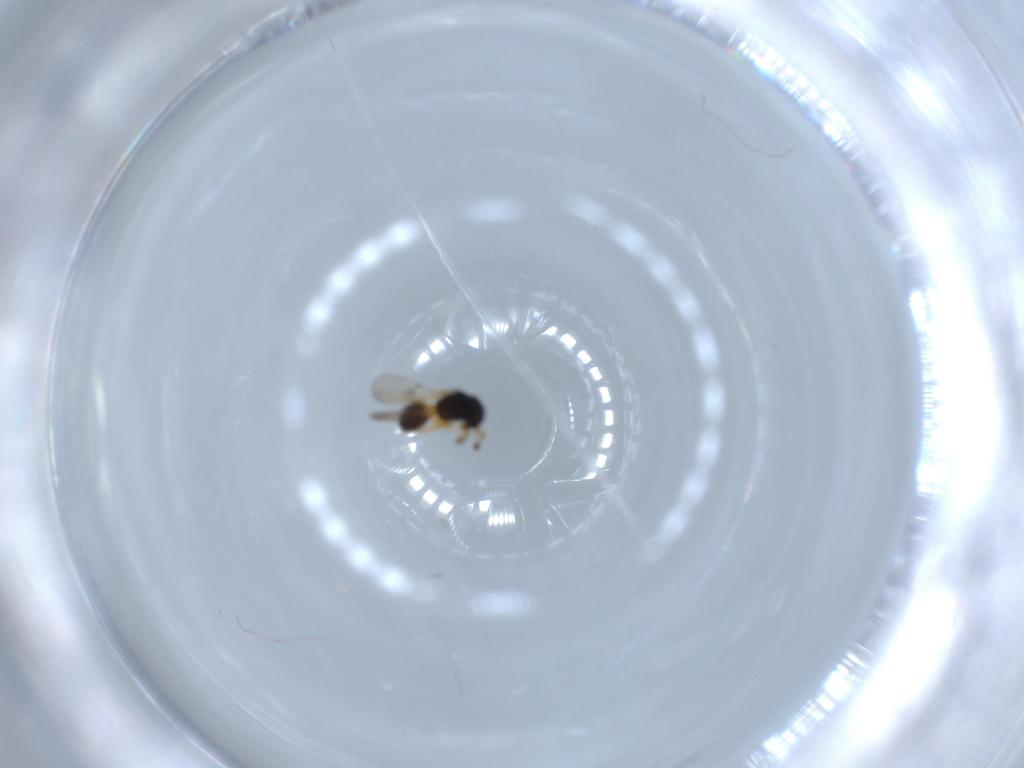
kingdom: Animalia
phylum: Arthropoda
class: Insecta
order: Hymenoptera
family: Scelionidae
